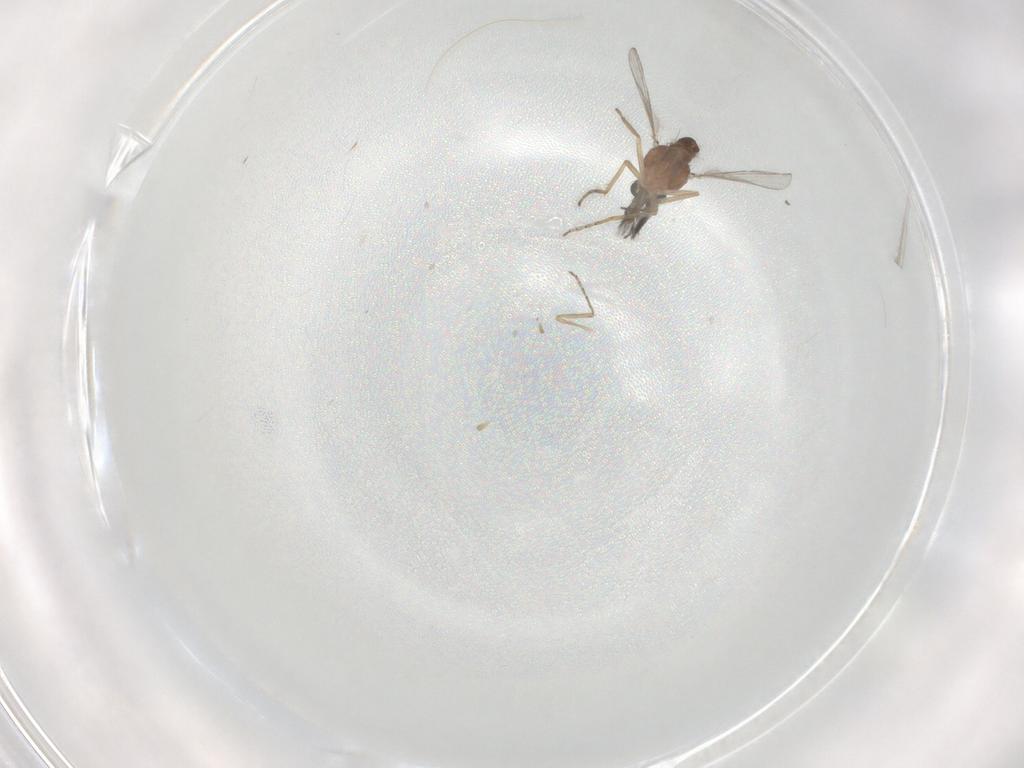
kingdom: Animalia
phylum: Arthropoda
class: Insecta
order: Diptera
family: Ceratopogonidae
